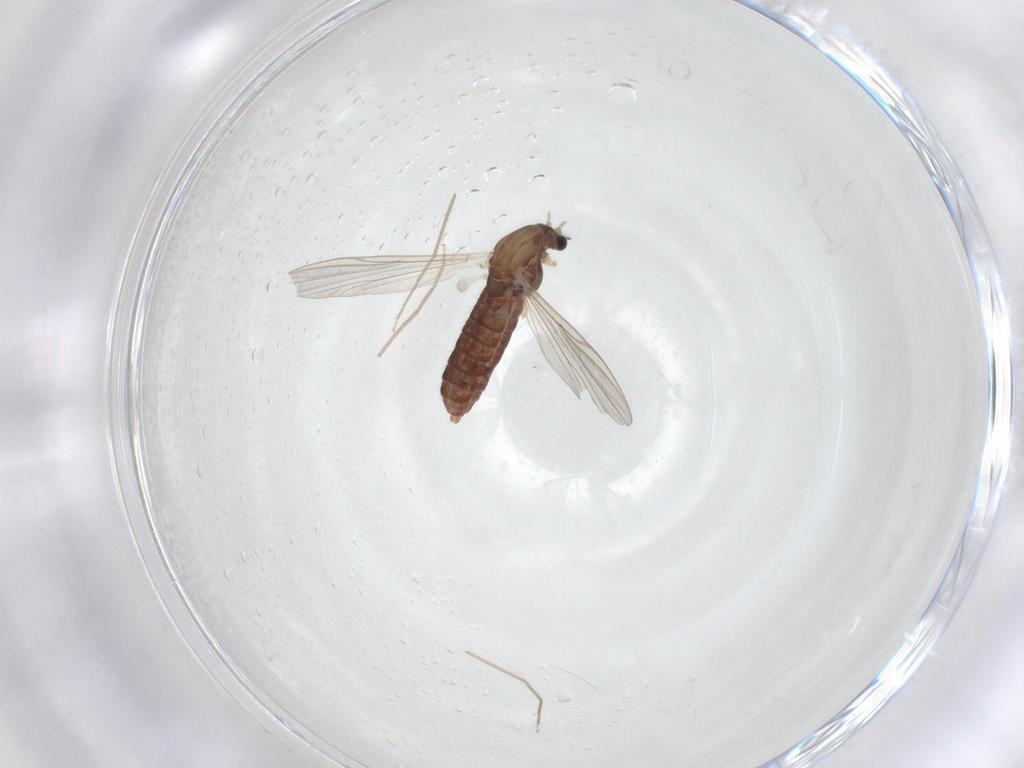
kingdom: Animalia
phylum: Arthropoda
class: Insecta
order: Diptera
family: Chironomidae
